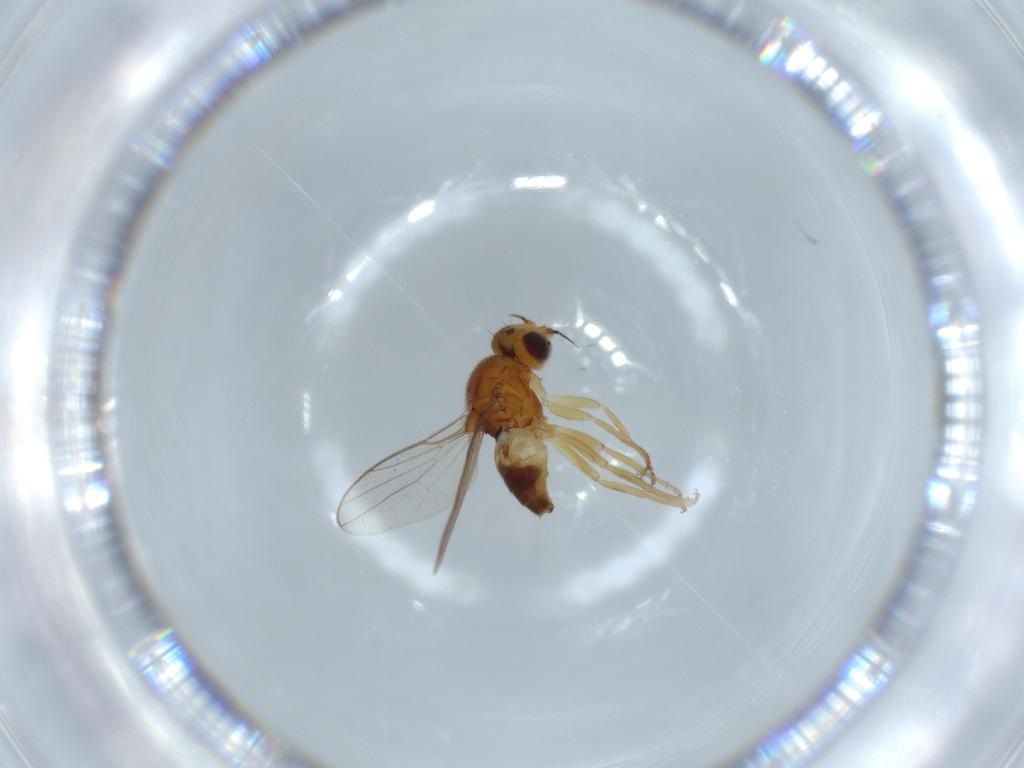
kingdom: Animalia
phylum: Arthropoda
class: Insecta
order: Diptera
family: Chloropidae
